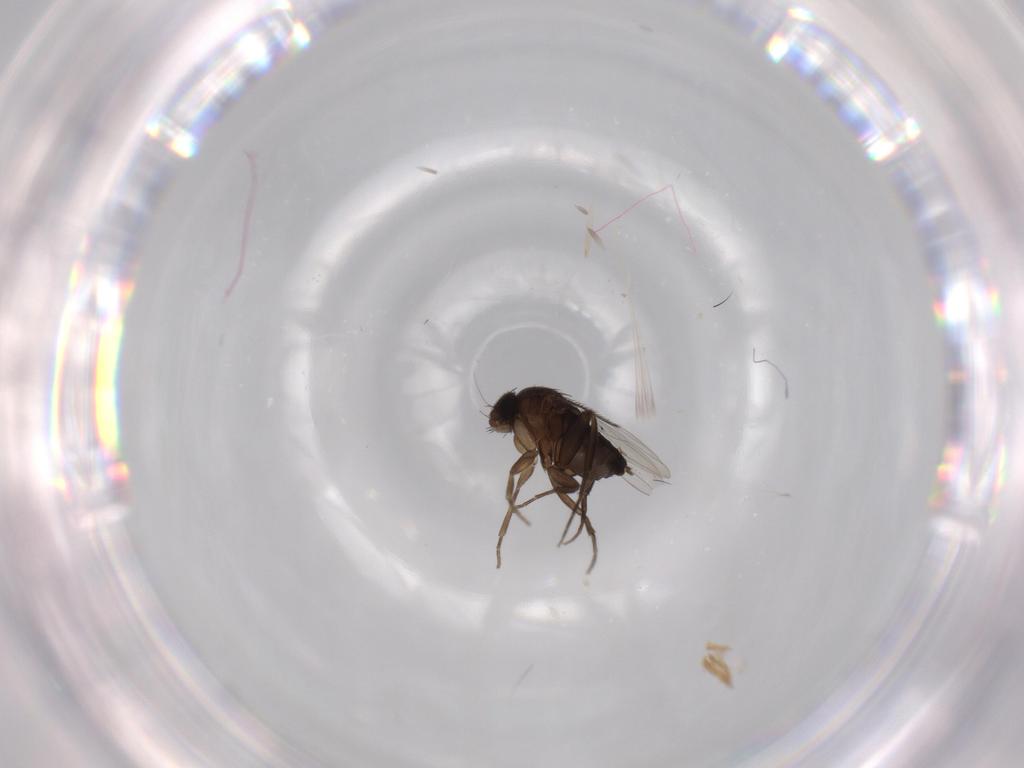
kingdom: Animalia
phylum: Arthropoda
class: Insecta
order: Diptera
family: Phoridae
